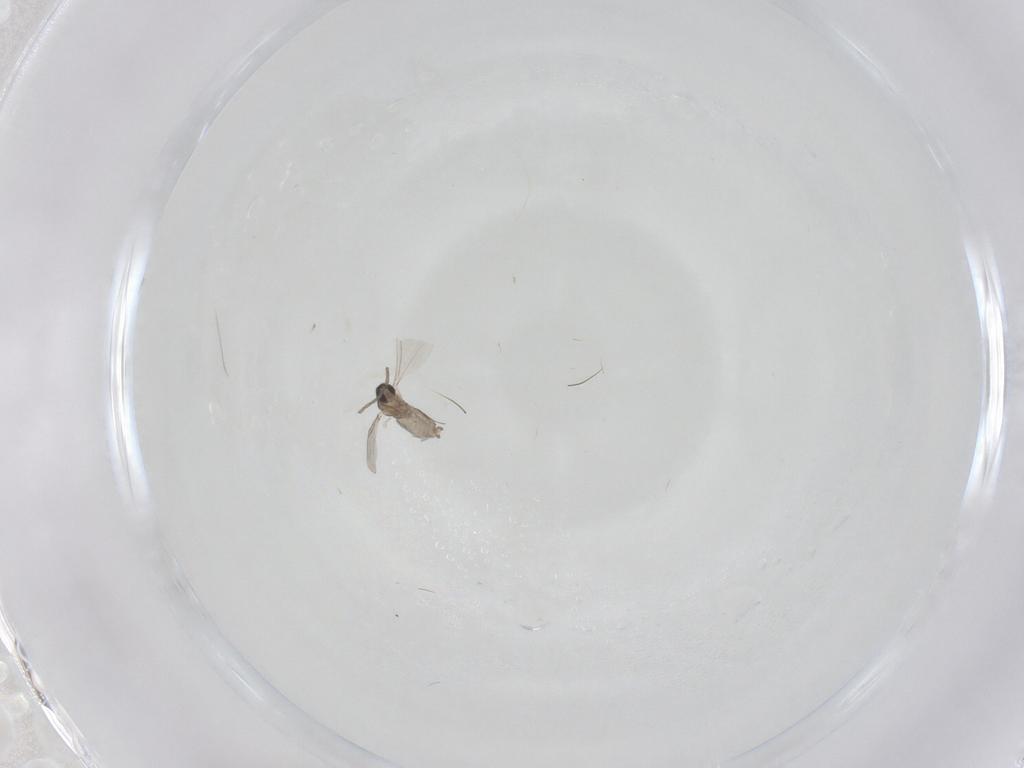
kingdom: Animalia
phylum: Arthropoda
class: Insecta
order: Diptera
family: Cecidomyiidae
